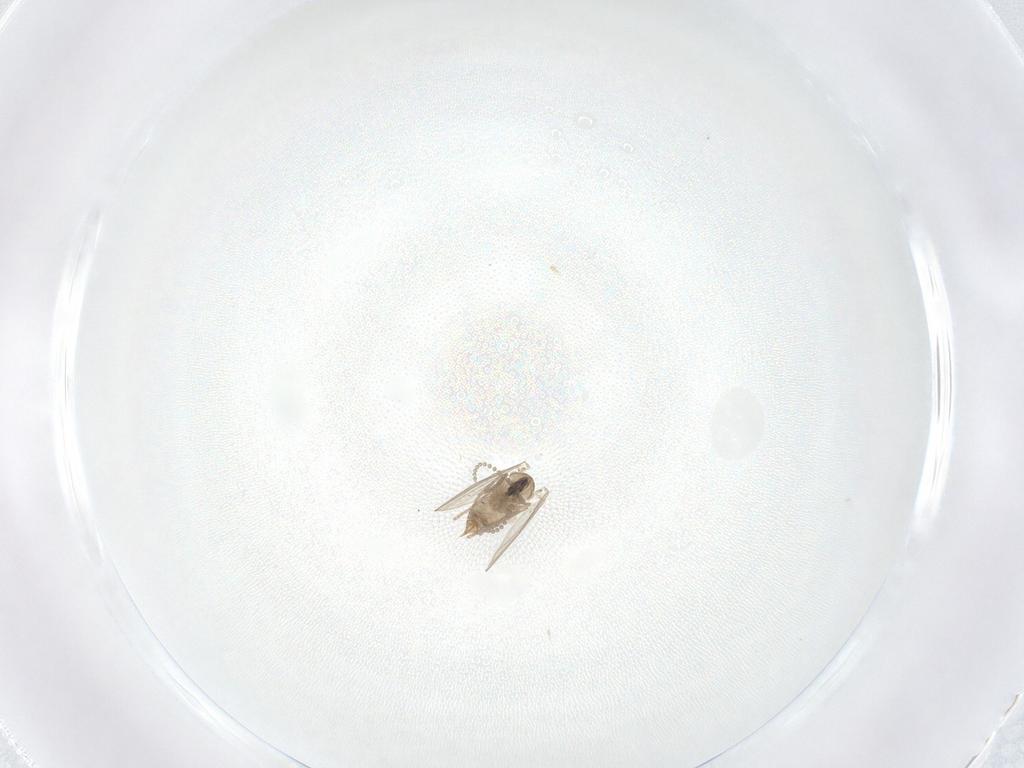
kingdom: Animalia
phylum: Arthropoda
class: Insecta
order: Diptera
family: Psychodidae
